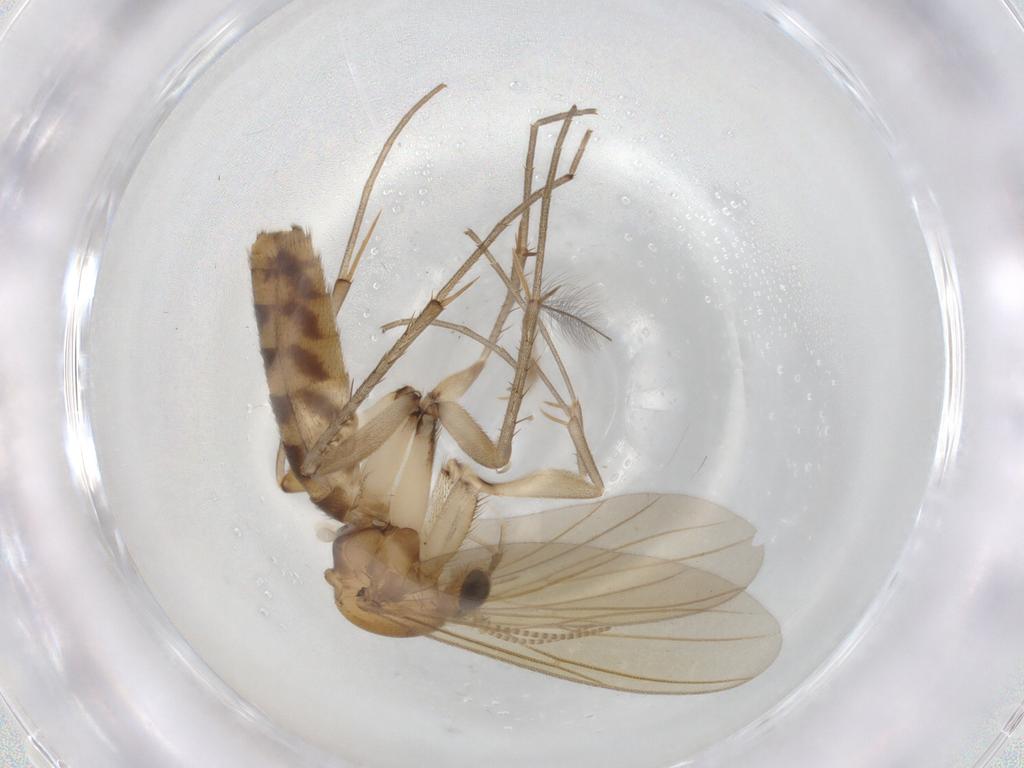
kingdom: Animalia
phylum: Arthropoda
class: Insecta
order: Diptera
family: Chironomidae
